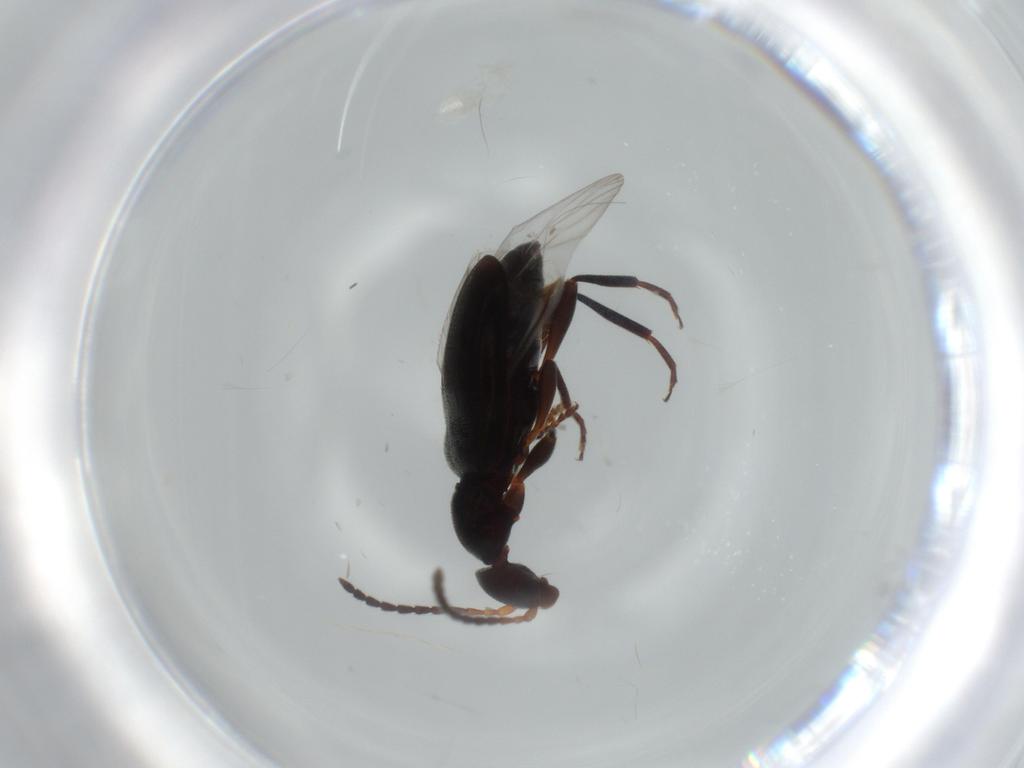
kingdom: Animalia
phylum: Arthropoda
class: Insecta
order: Coleoptera
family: Anthicidae
